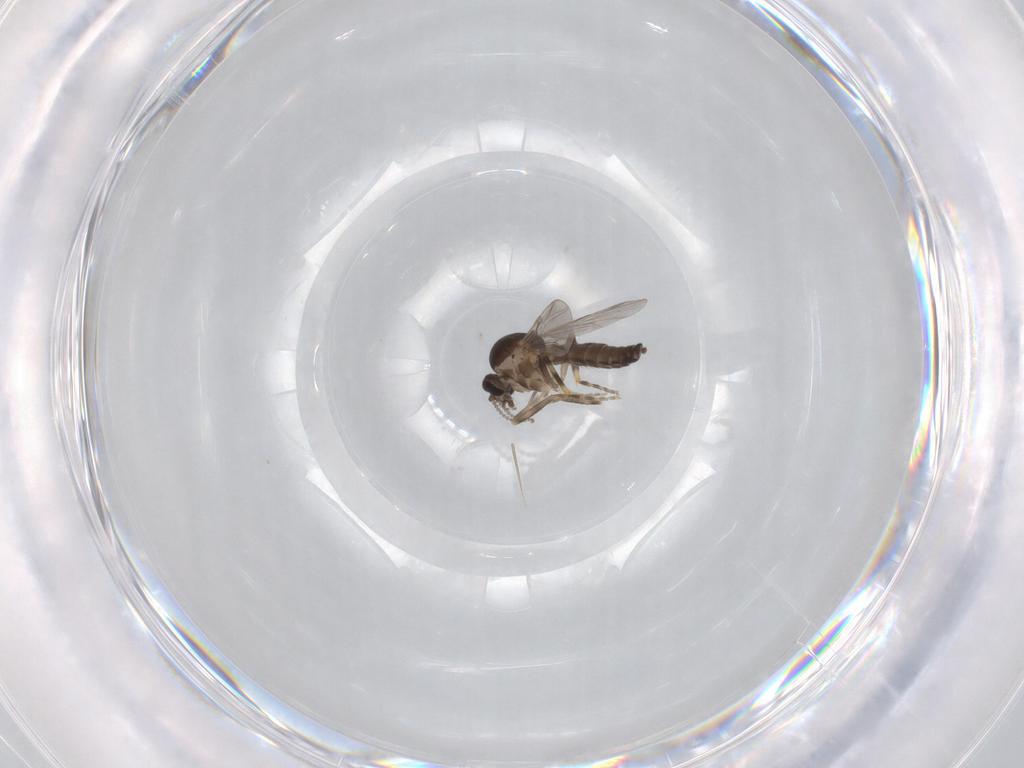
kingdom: Animalia
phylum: Arthropoda
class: Insecta
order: Diptera
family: Ceratopogonidae
